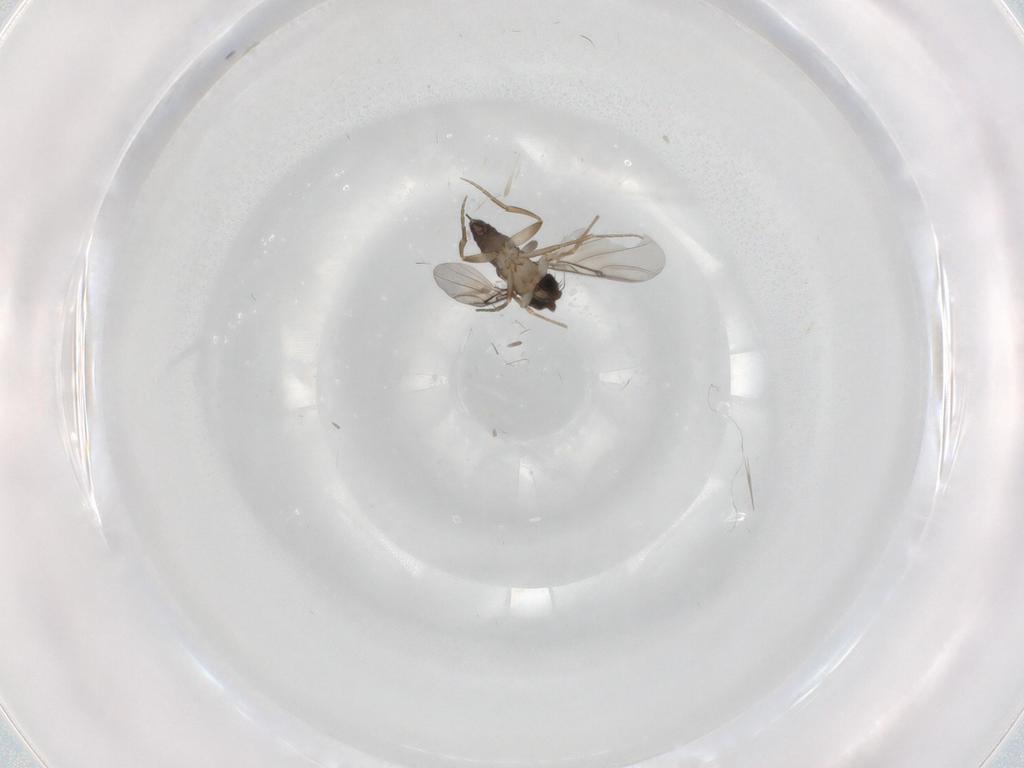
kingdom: Animalia
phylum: Arthropoda
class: Insecta
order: Diptera
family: Phoridae
